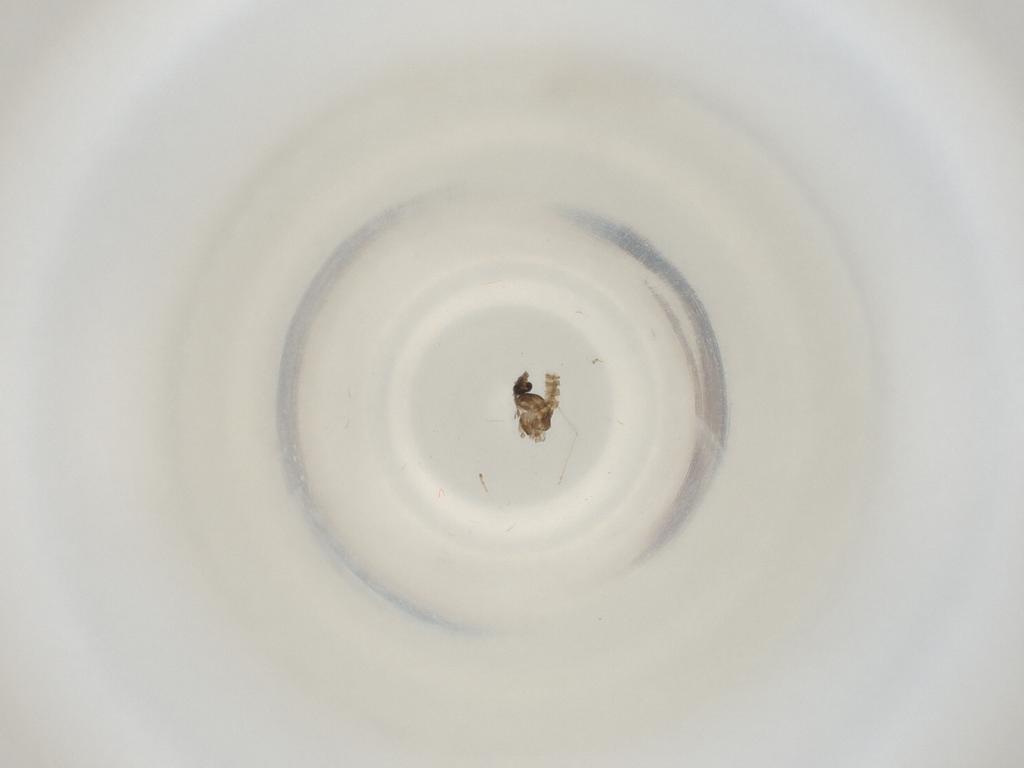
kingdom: Animalia
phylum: Arthropoda
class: Insecta
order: Diptera
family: Cecidomyiidae
